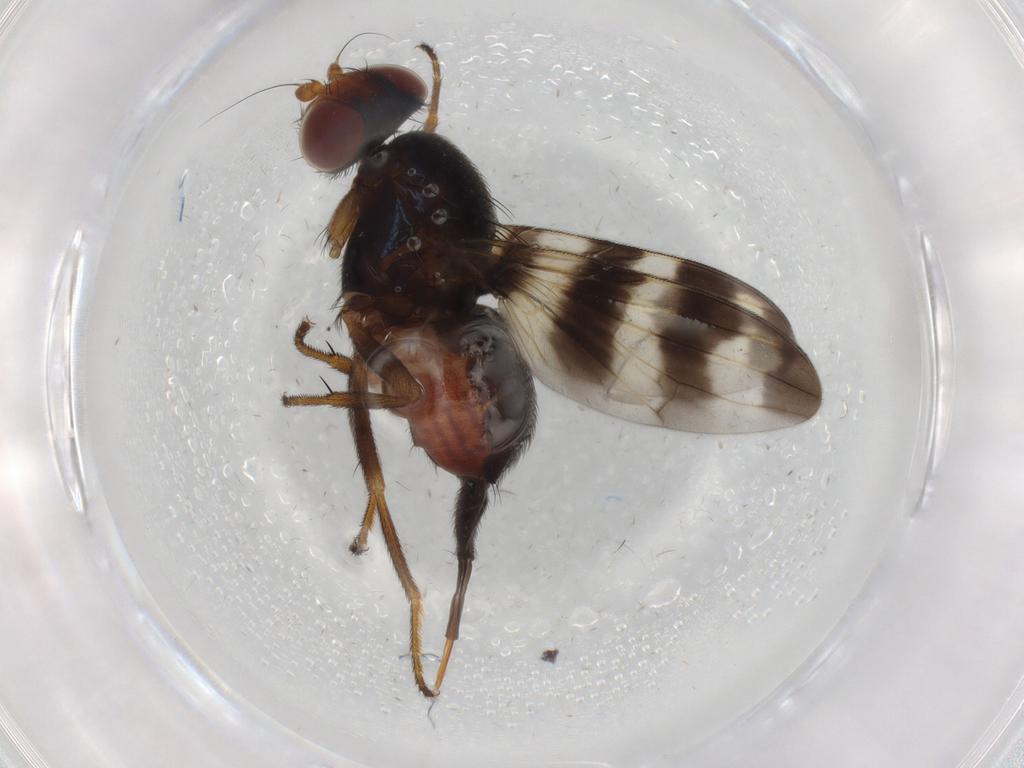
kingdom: Animalia
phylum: Arthropoda
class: Insecta
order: Diptera
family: Ulidiidae
